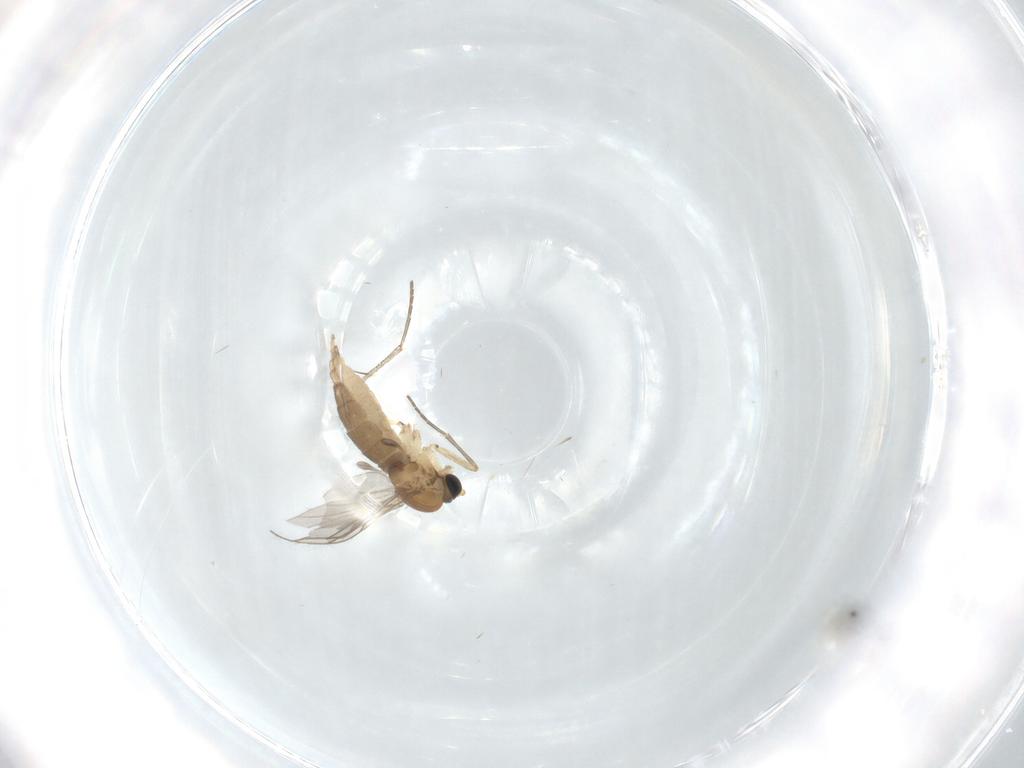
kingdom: Animalia
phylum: Arthropoda
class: Insecta
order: Diptera
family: Sciaridae
